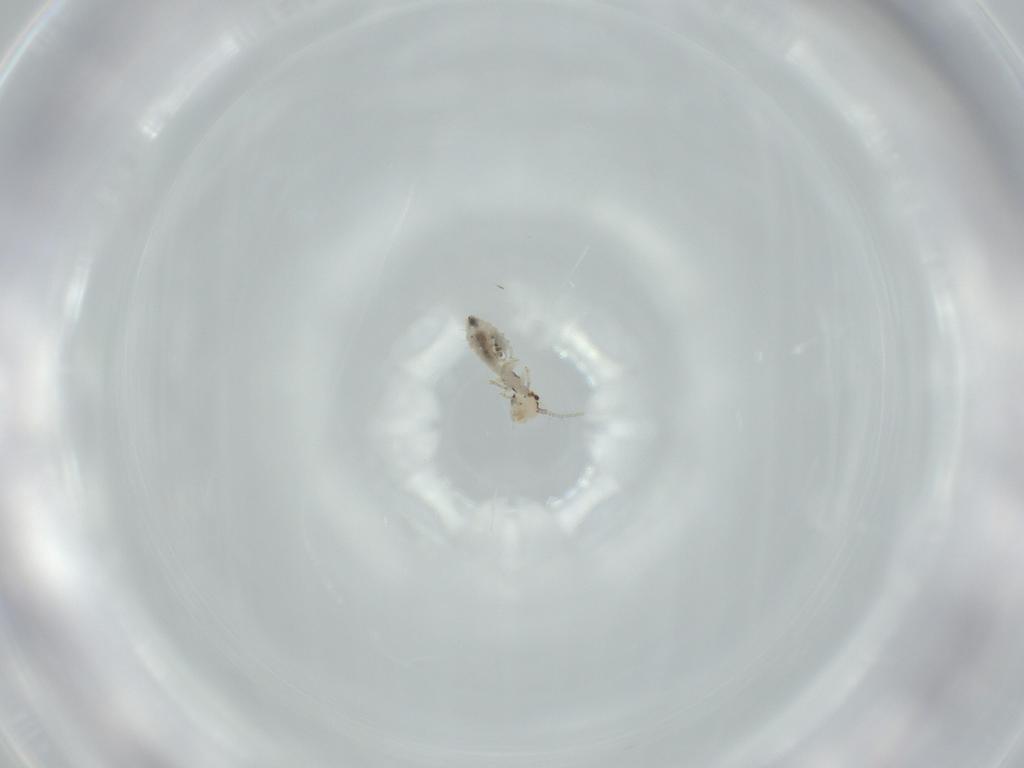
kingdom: Animalia
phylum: Arthropoda
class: Insecta
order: Psocodea
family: Pseudocaeciliidae
